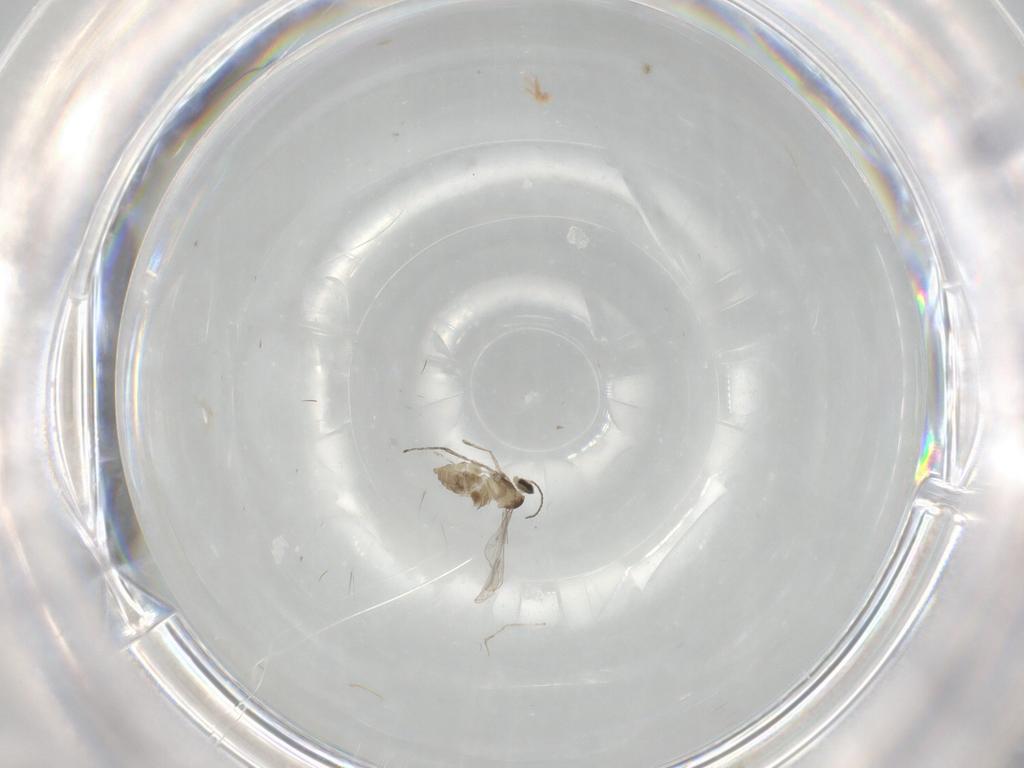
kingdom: Animalia
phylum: Arthropoda
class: Insecta
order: Diptera
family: Cecidomyiidae
